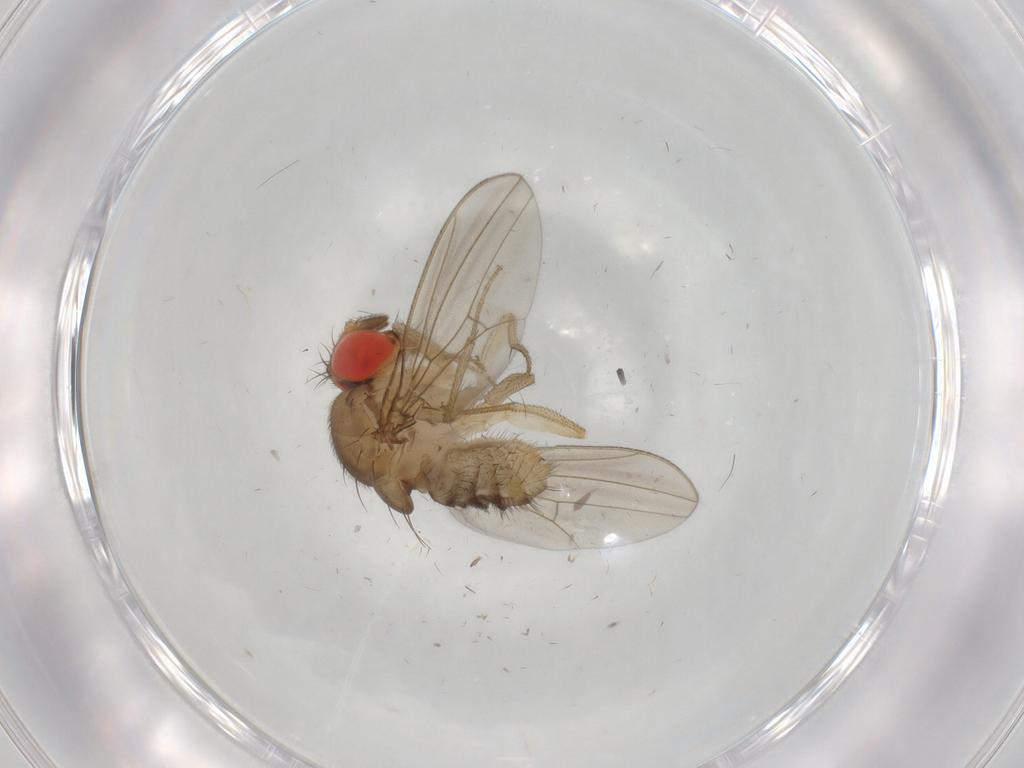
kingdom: Animalia
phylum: Arthropoda
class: Insecta
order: Diptera
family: Drosophilidae
